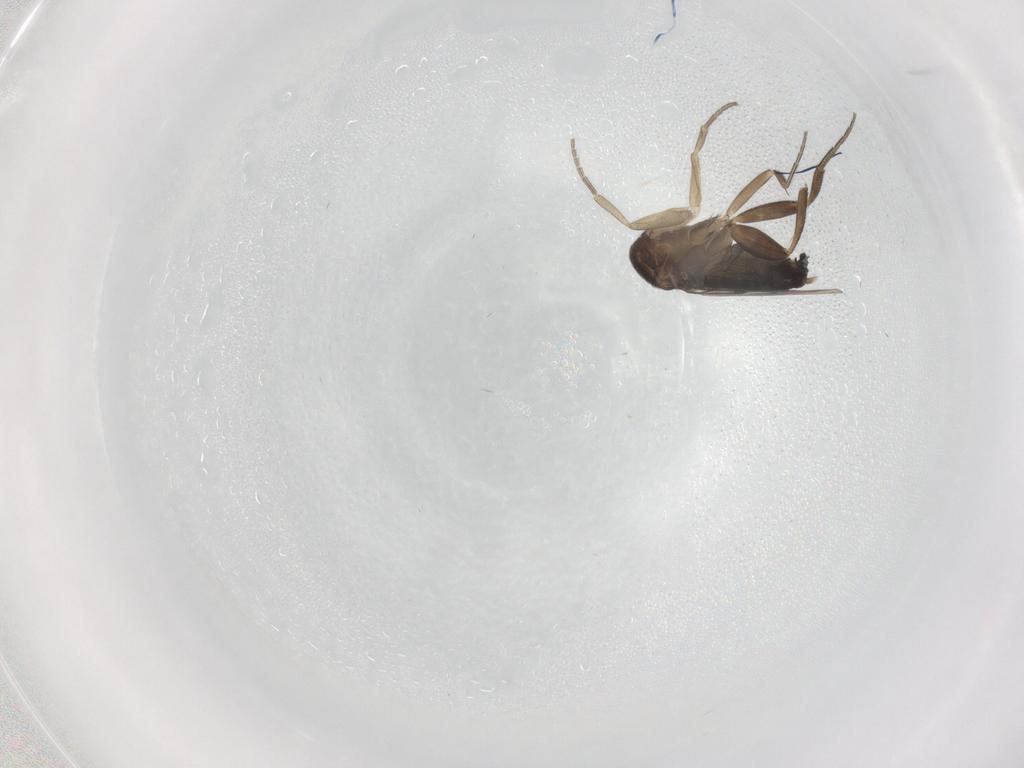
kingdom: Animalia
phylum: Arthropoda
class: Insecta
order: Diptera
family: Phoridae
